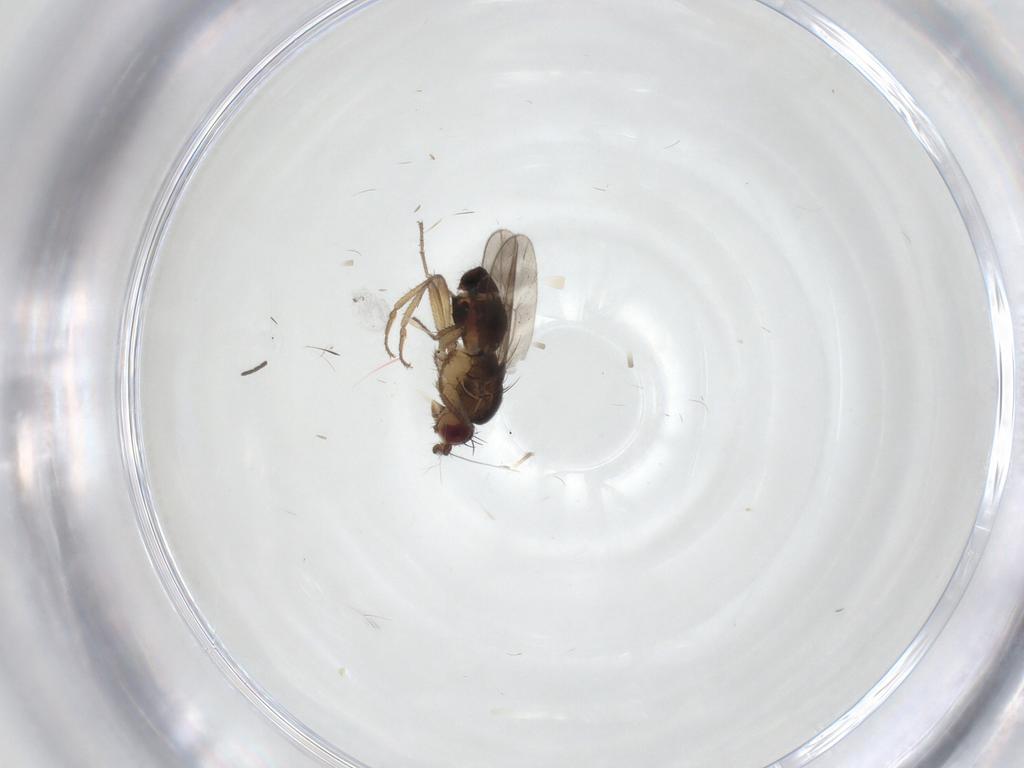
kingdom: Animalia
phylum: Arthropoda
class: Insecta
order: Diptera
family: Sphaeroceridae
